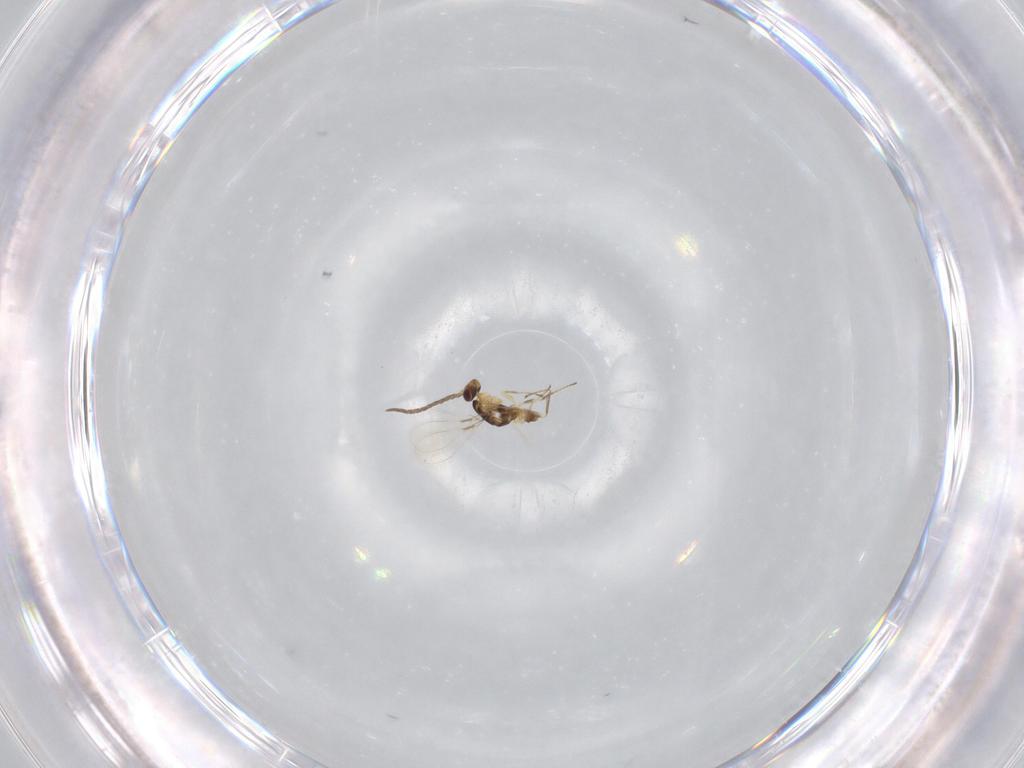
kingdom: Animalia
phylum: Arthropoda
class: Insecta
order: Hymenoptera
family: Mymaridae
